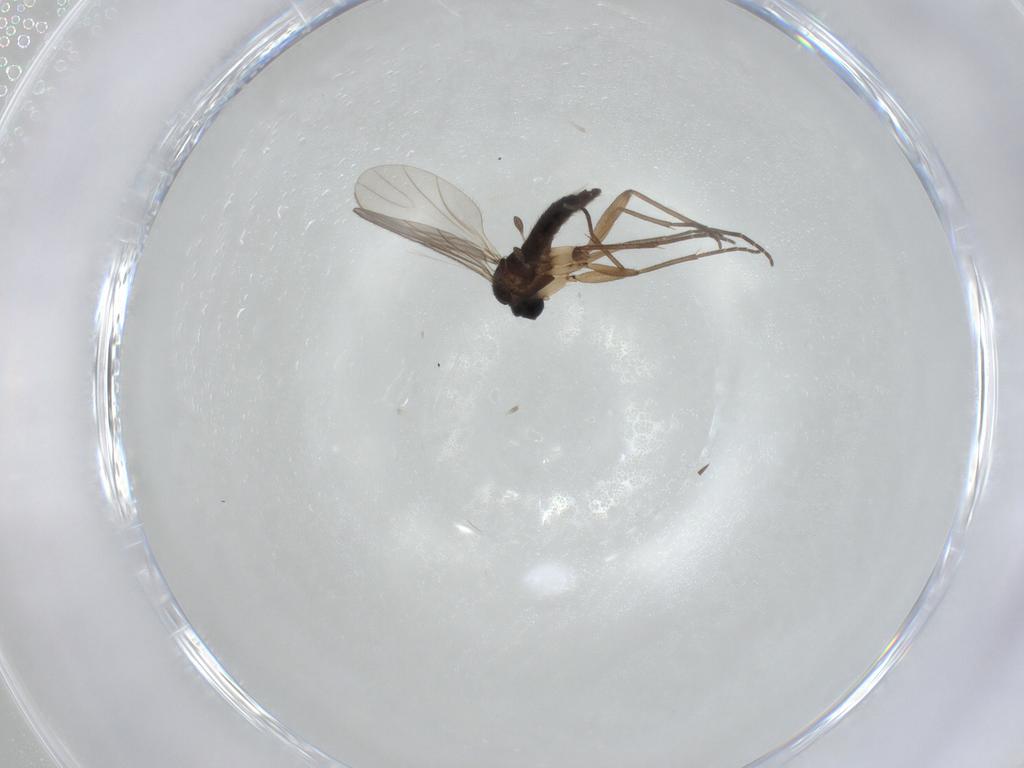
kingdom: Animalia
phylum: Arthropoda
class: Insecta
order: Diptera
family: Sciaridae
